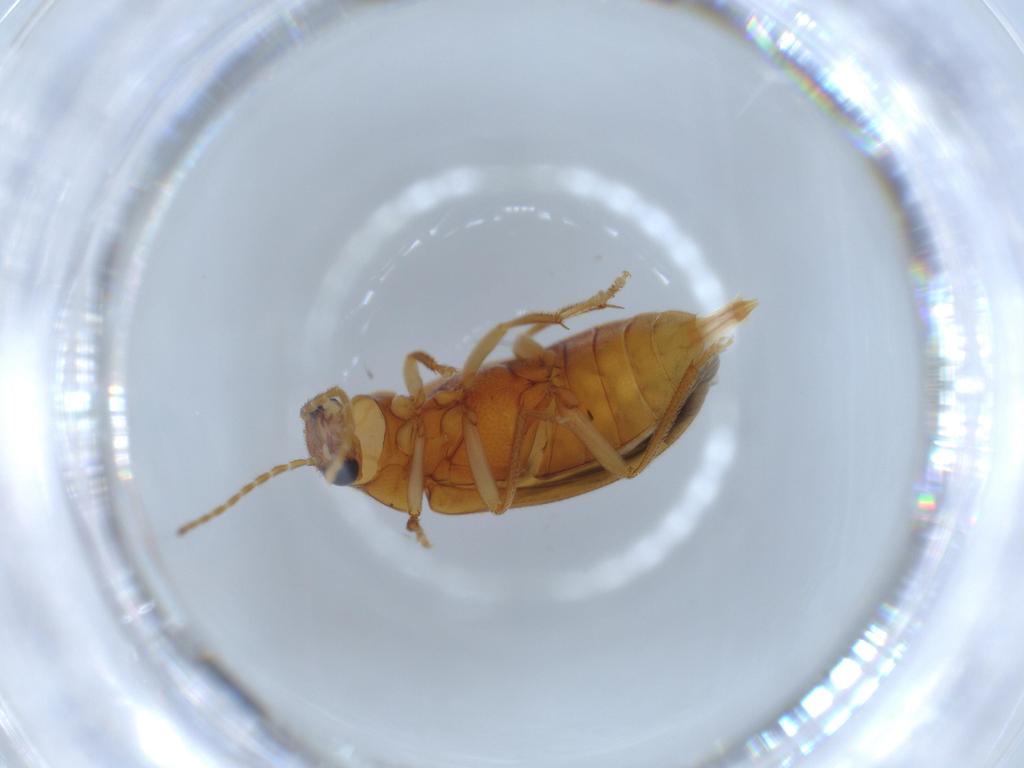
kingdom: Animalia
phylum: Arthropoda
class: Insecta
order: Coleoptera
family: Ptilodactylidae
